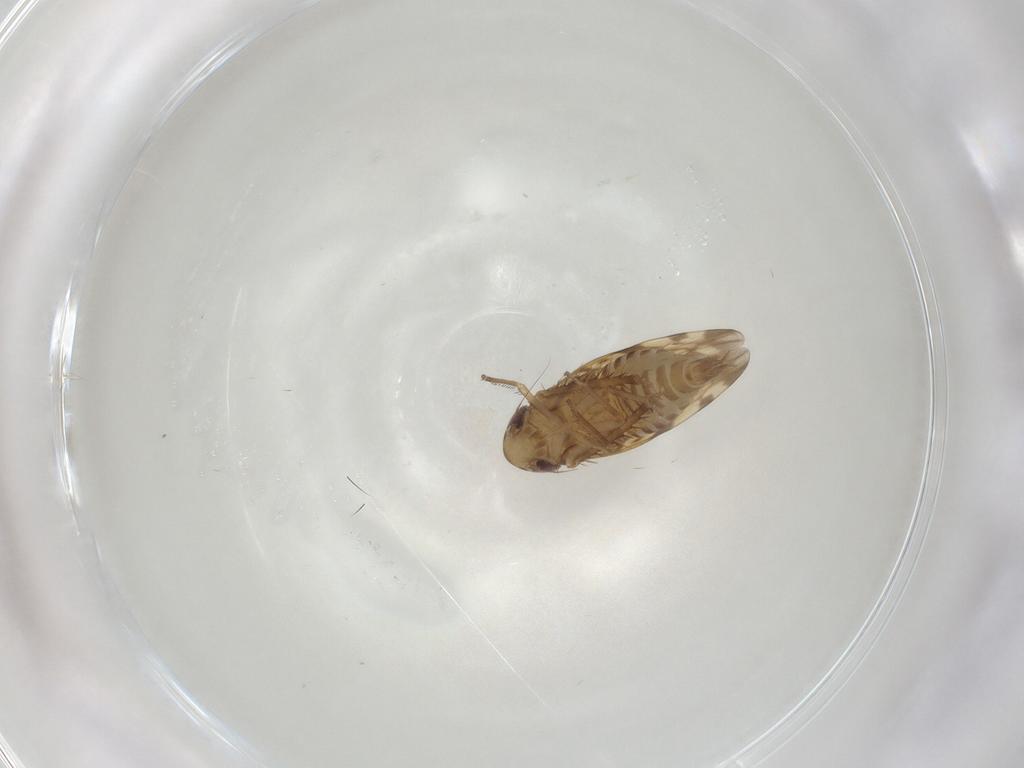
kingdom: Animalia
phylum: Arthropoda
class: Insecta
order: Hemiptera
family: Cicadellidae
